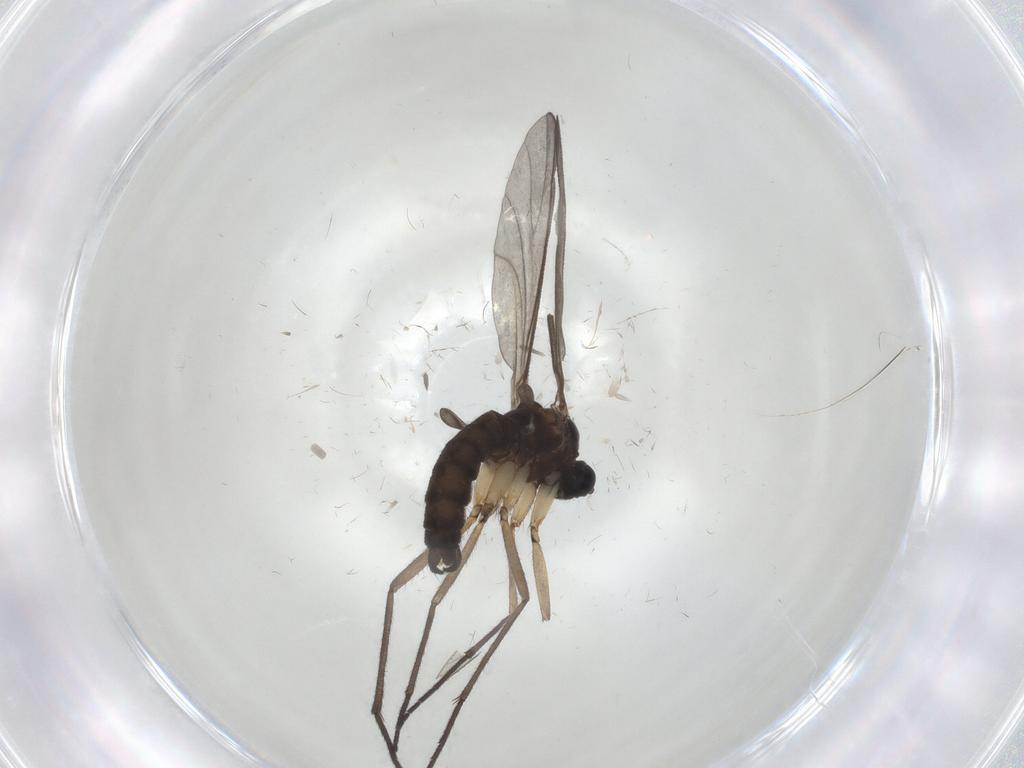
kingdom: Animalia
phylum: Arthropoda
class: Insecta
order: Diptera
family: Sciaridae
